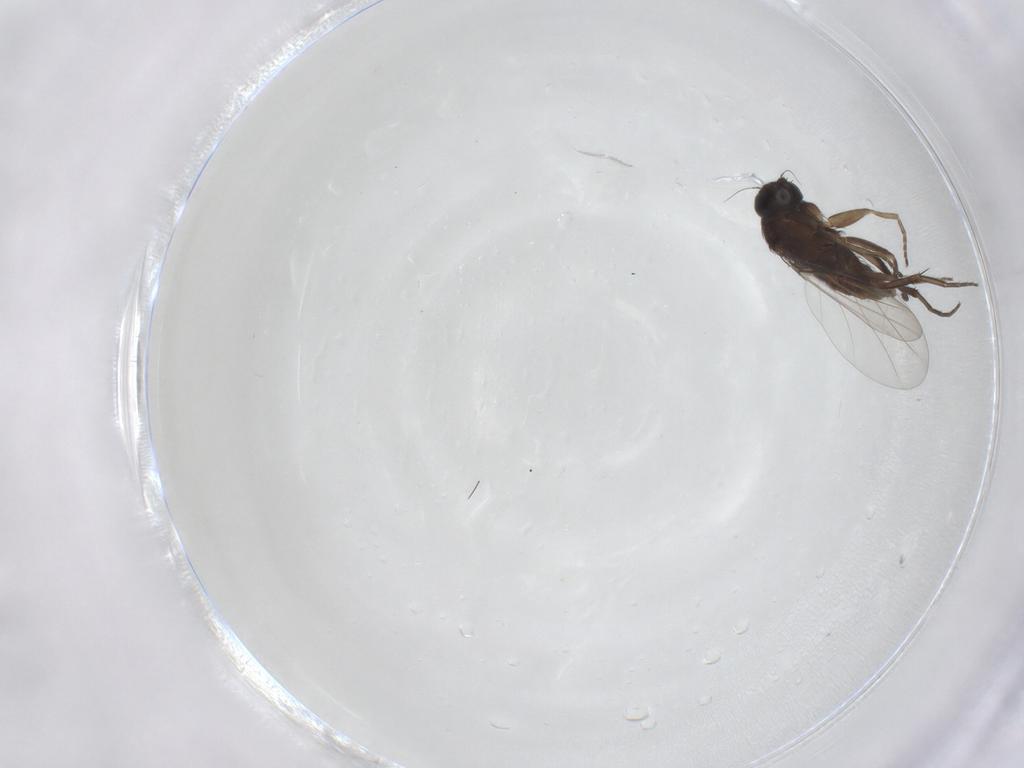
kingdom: Animalia
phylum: Arthropoda
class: Insecta
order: Diptera
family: Phoridae
